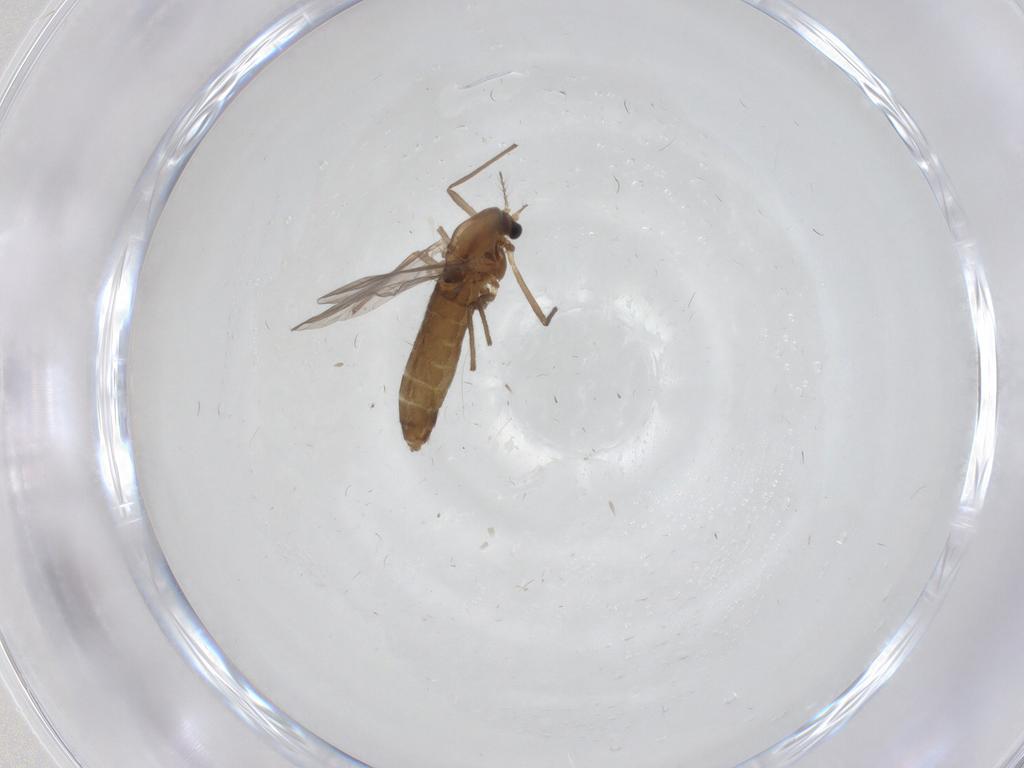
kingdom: Animalia
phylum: Arthropoda
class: Insecta
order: Diptera
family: Chironomidae
